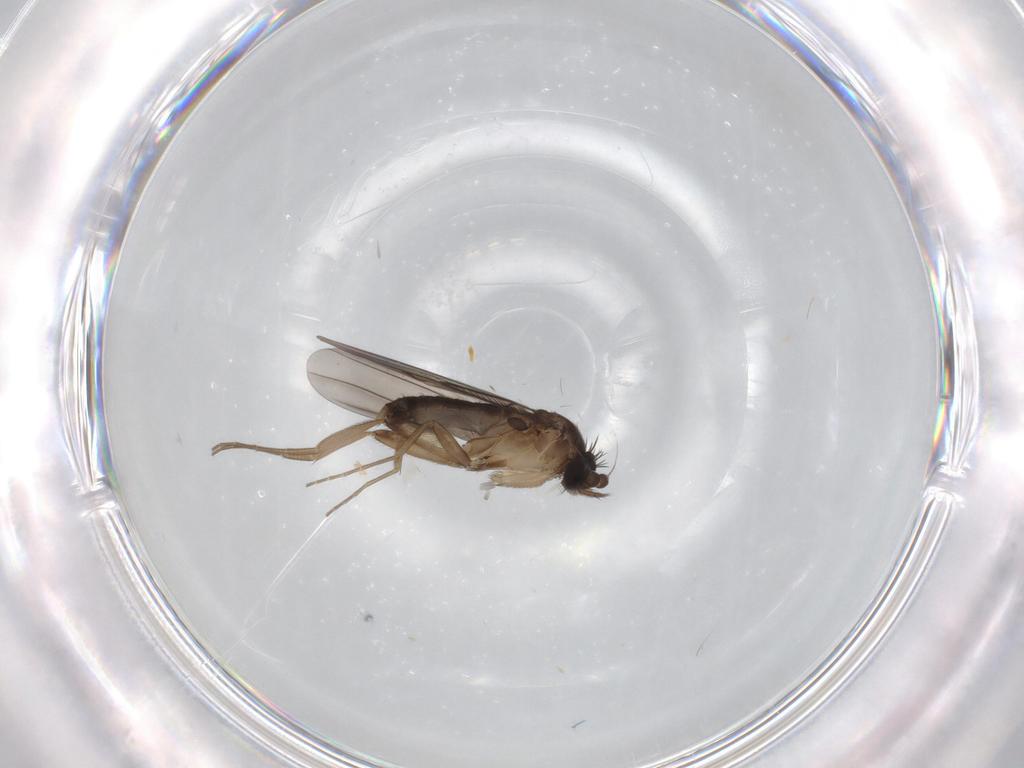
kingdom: Animalia
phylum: Arthropoda
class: Insecta
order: Diptera
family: Phoridae
